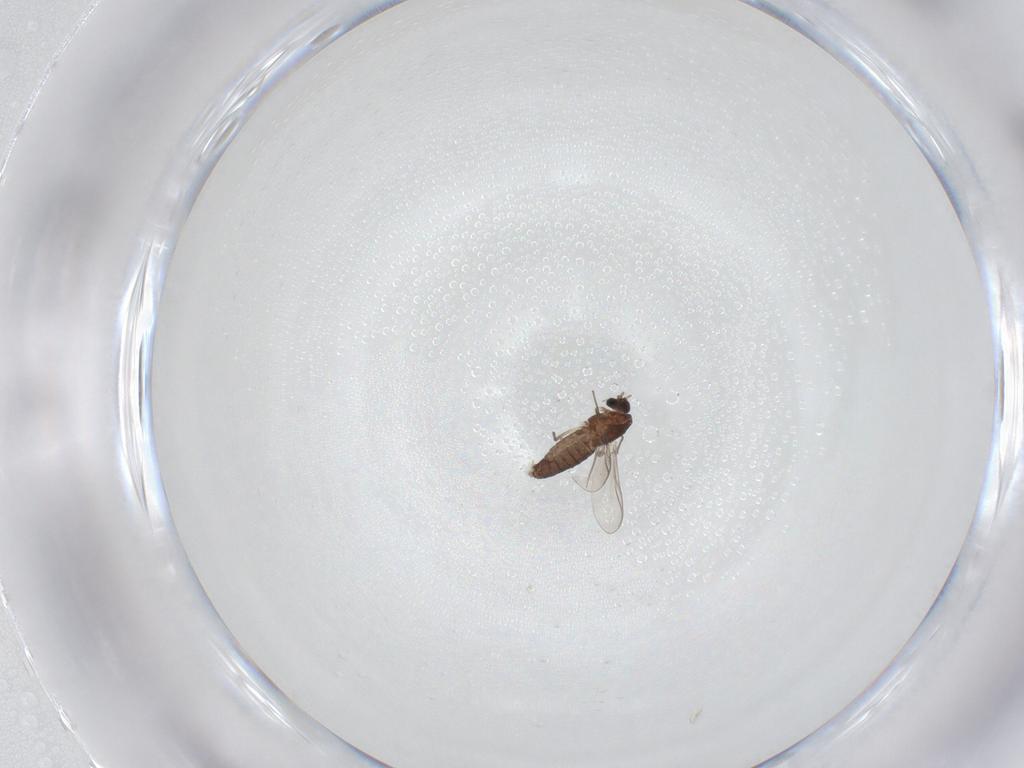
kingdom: Animalia
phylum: Arthropoda
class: Insecta
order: Diptera
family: Chironomidae
